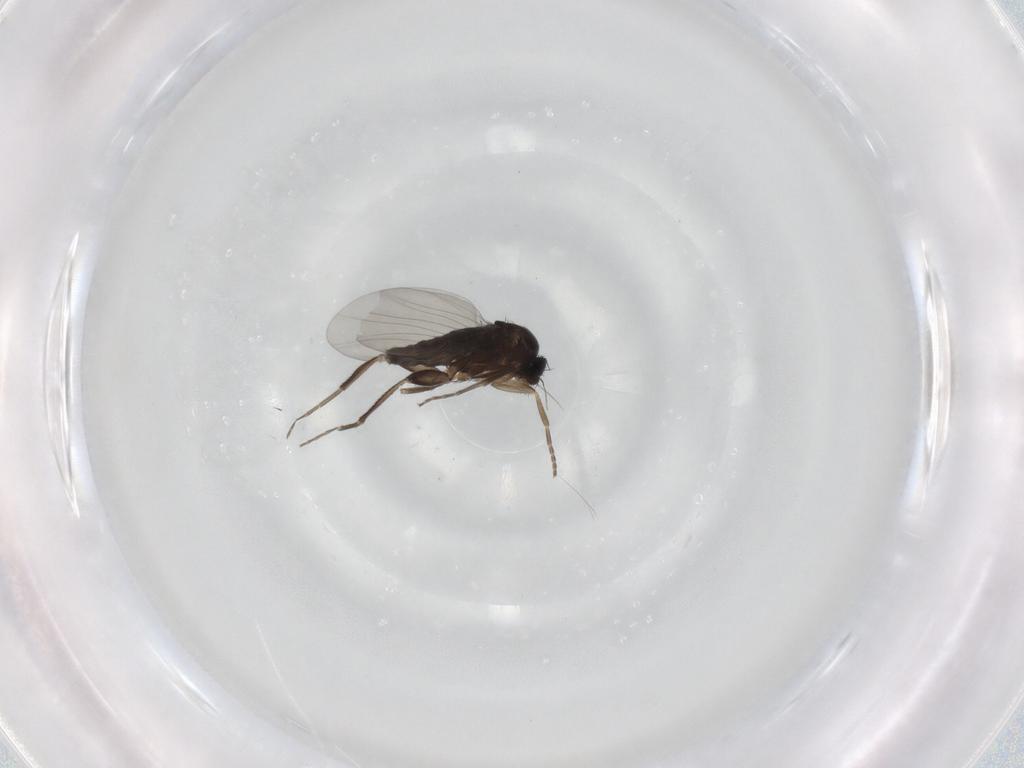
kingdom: Animalia
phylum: Arthropoda
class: Insecta
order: Diptera
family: Phoridae
